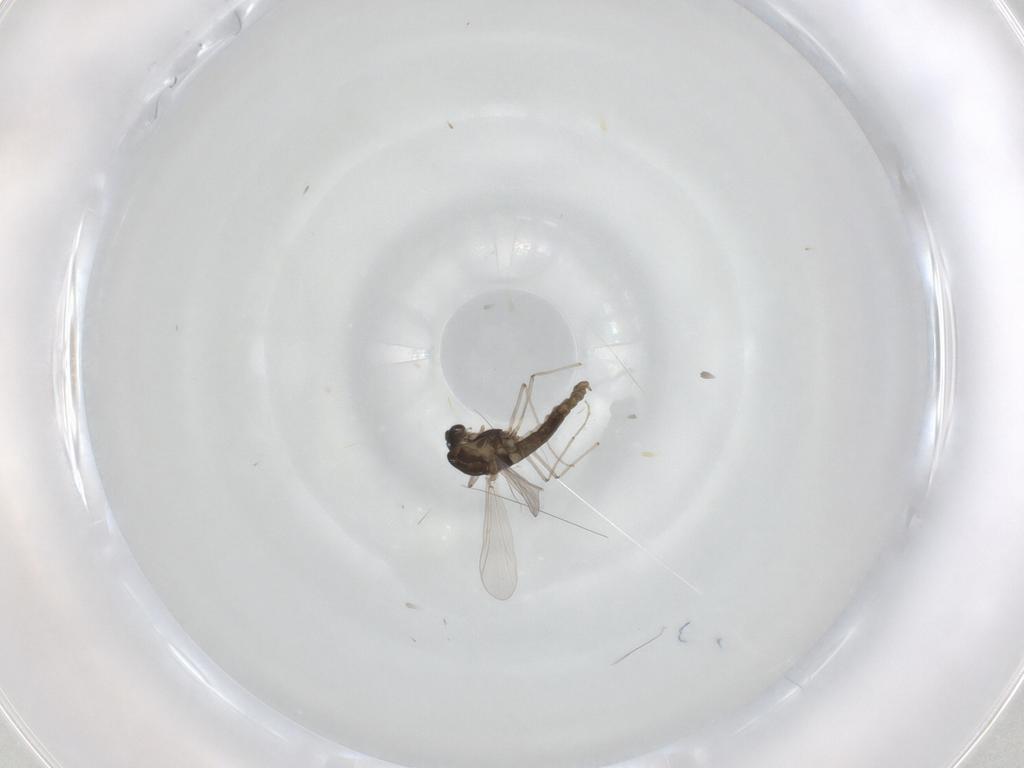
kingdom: Animalia
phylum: Arthropoda
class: Insecta
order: Diptera
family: Chironomidae
